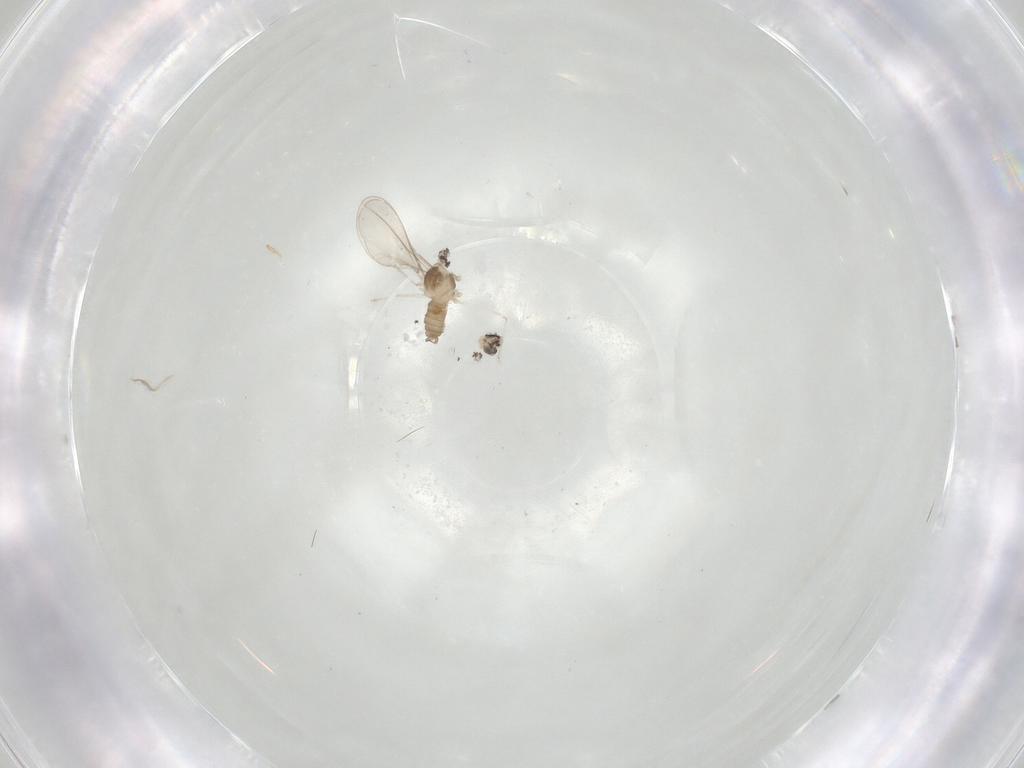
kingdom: Animalia
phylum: Arthropoda
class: Insecta
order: Diptera
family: Cecidomyiidae
